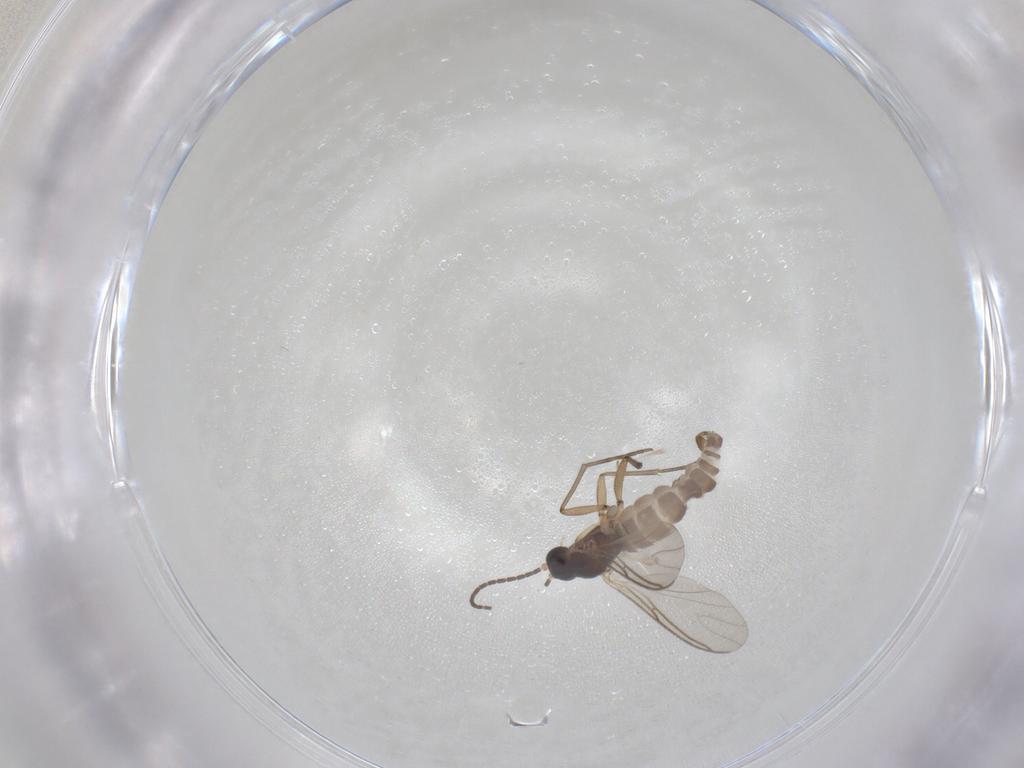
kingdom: Animalia
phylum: Arthropoda
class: Insecta
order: Diptera
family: Sciaridae
